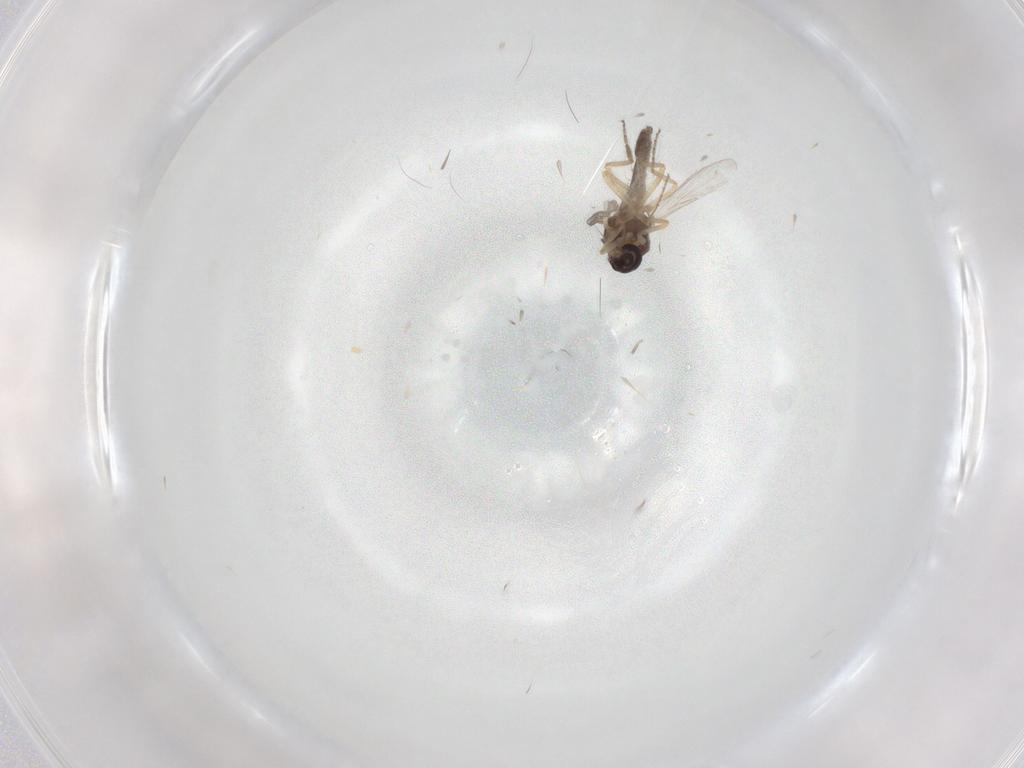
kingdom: Animalia
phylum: Arthropoda
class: Insecta
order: Diptera
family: Ceratopogonidae
